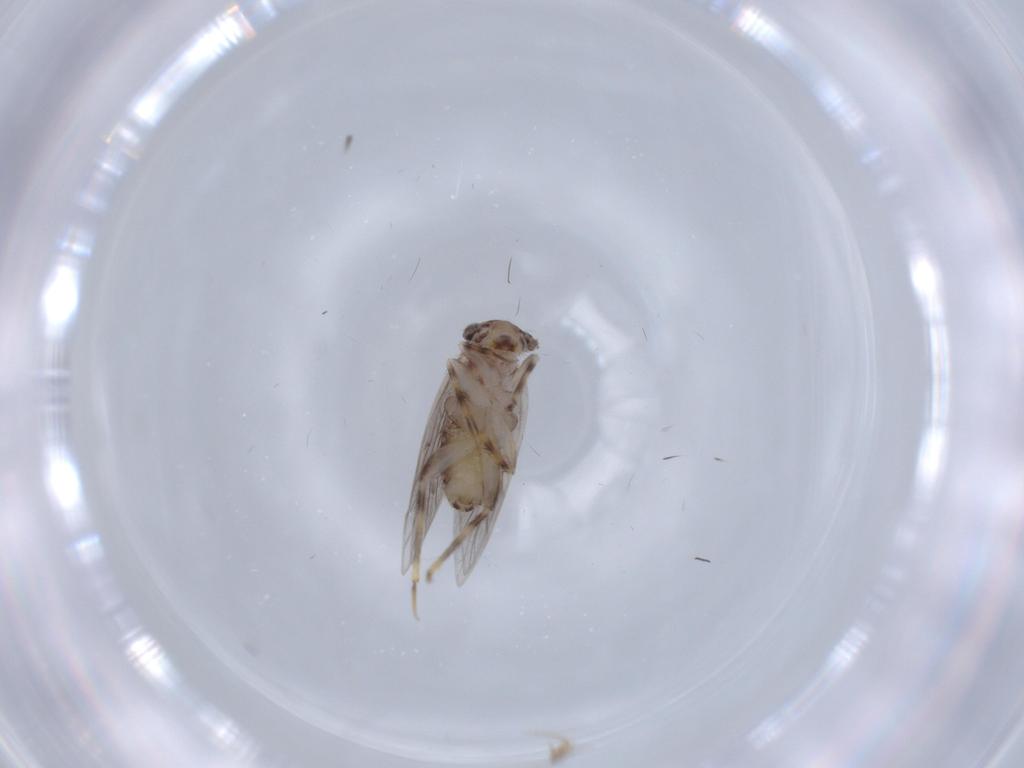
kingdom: Animalia
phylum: Arthropoda
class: Insecta
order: Psocodea
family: Lepidopsocidae
